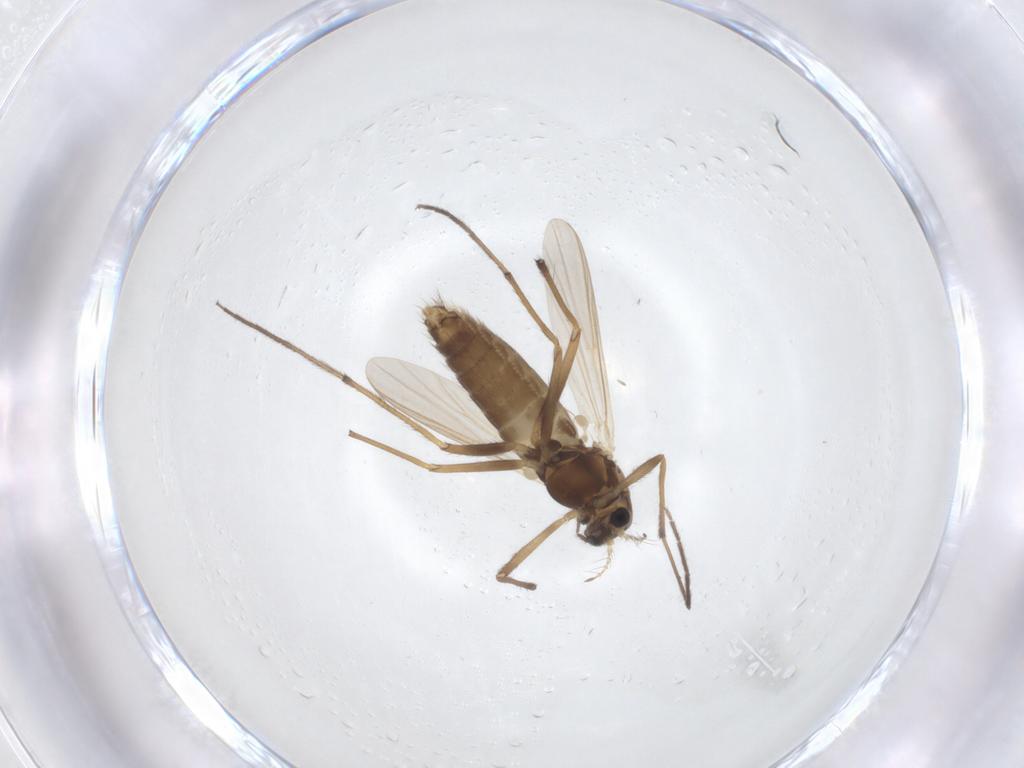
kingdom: Animalia
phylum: Arthropoda
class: Insecta
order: Diptera
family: Chironomidae
